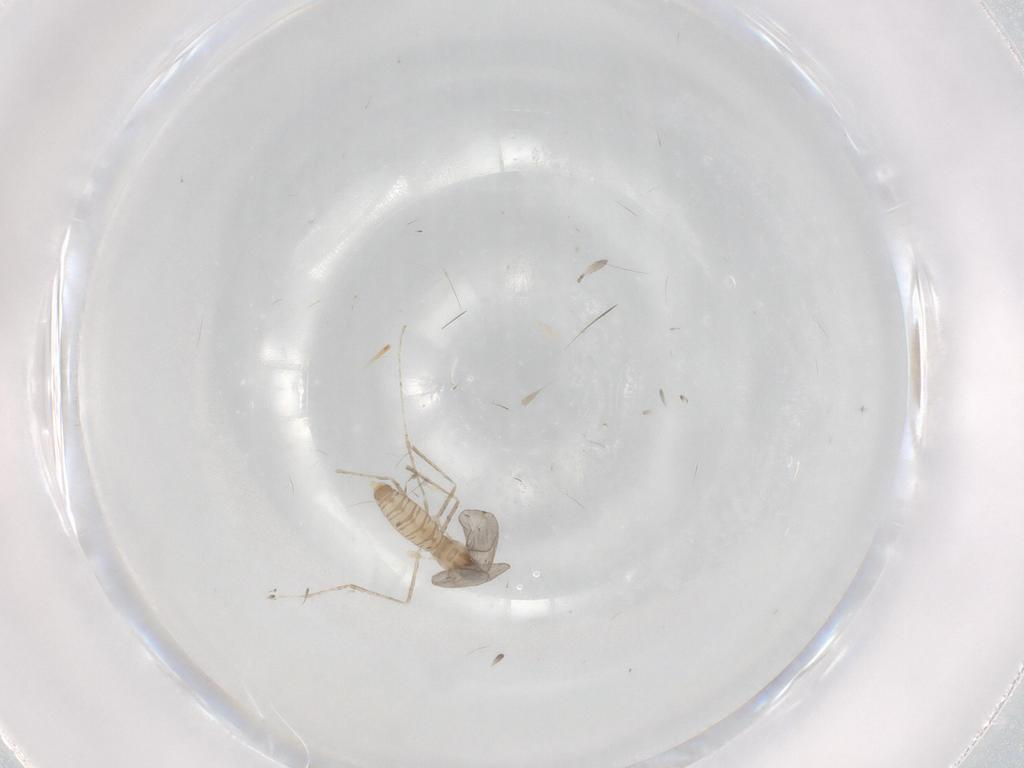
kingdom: Animalia
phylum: Arthropoda
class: Insecta
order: Diptera
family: Cecidomyiidae
